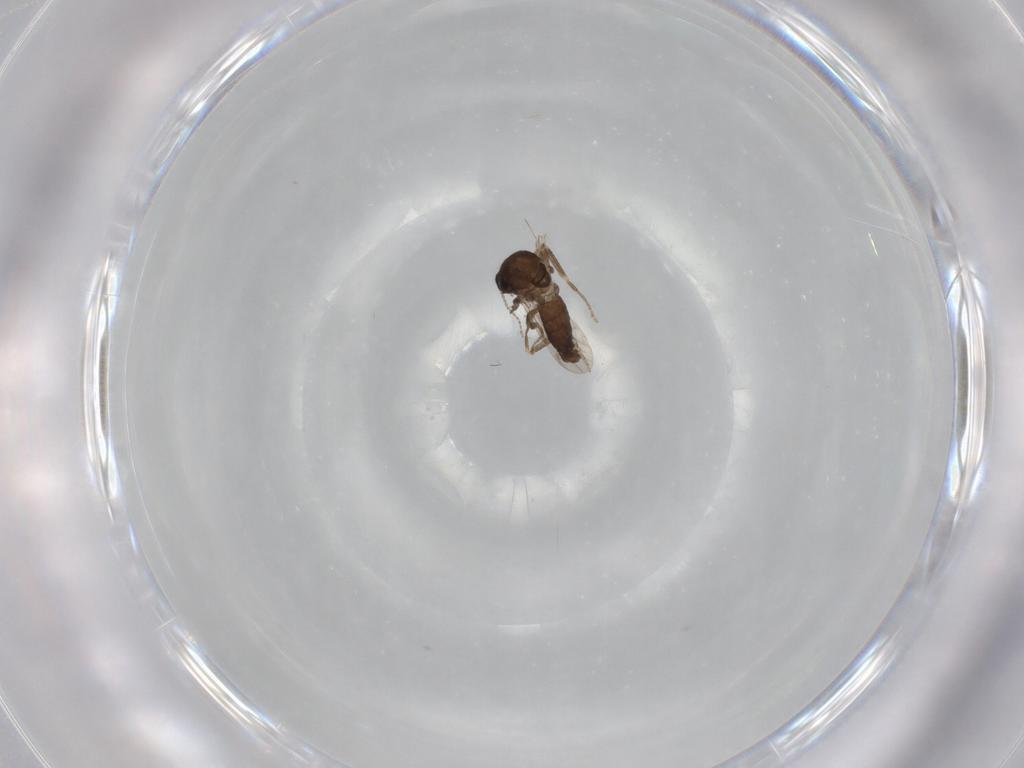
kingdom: Animalia
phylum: Arthropoda
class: Insecta
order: Diptera
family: Ceratopogonidae
